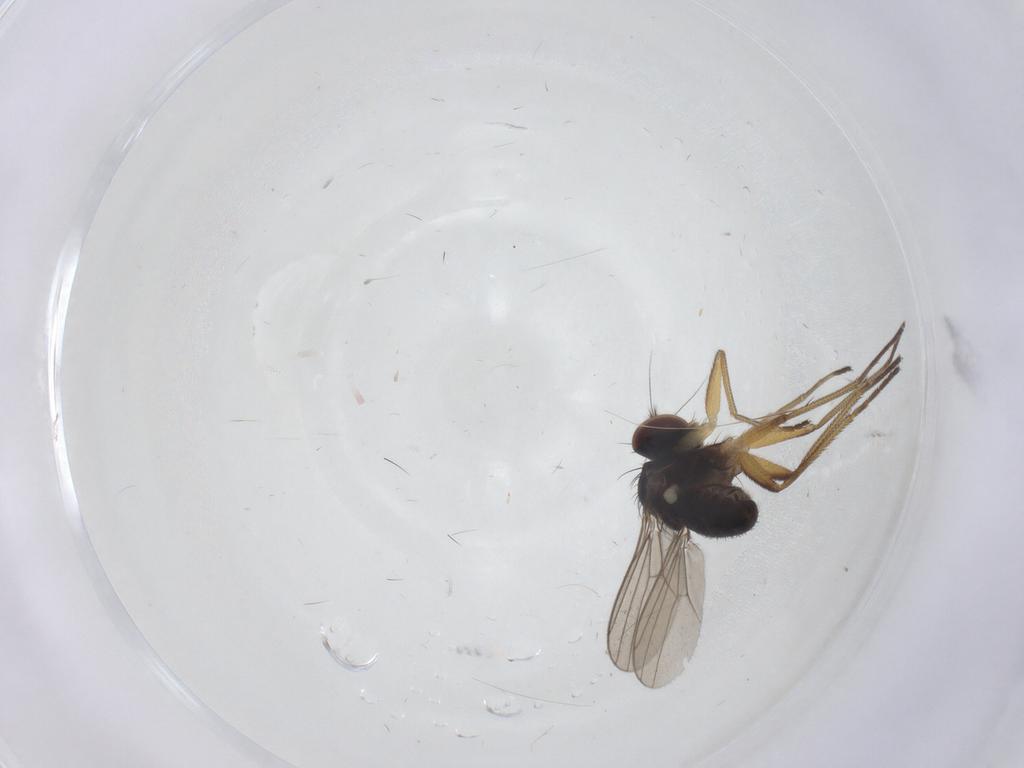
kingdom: Animalia
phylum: Arthropoda
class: Insecta
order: Diptera
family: Dolichopodidae
